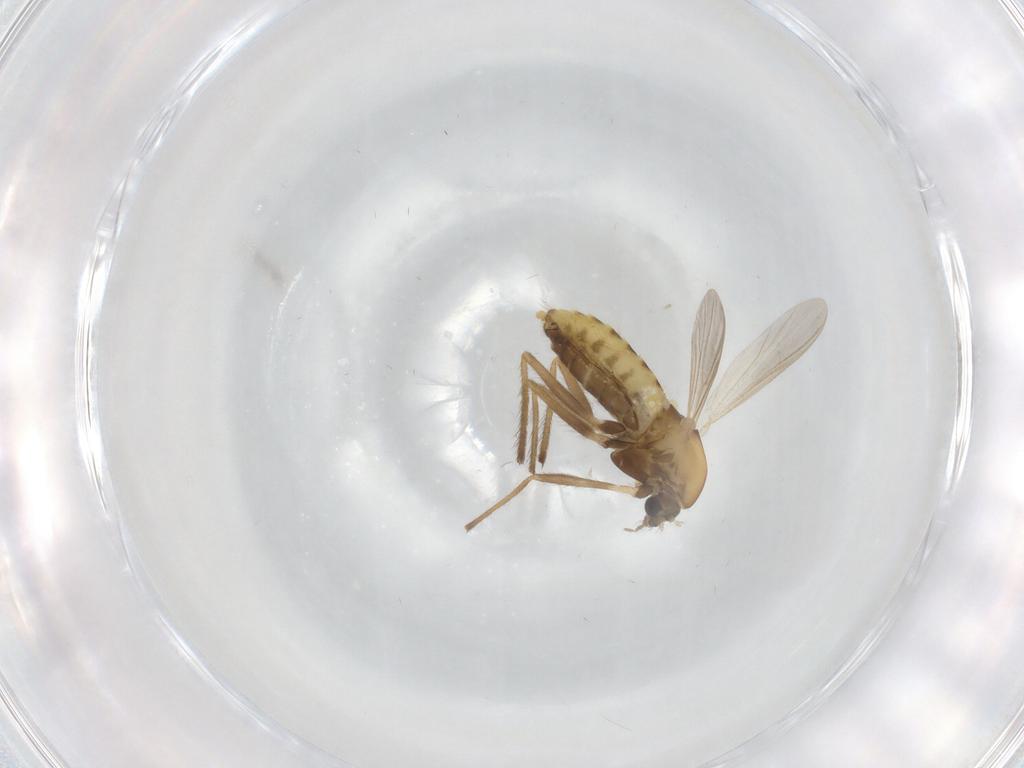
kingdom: Animalia
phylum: Arthropoda
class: Insecta
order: Diptera
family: Chironomidae
